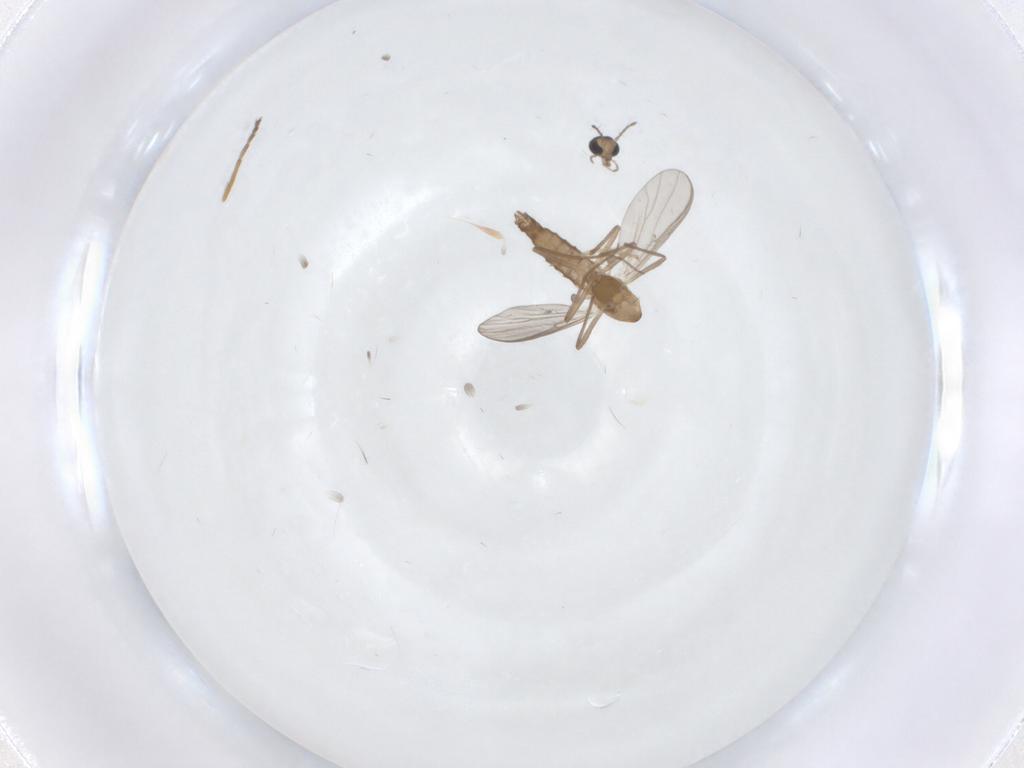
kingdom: Animalia
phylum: Arthropoda
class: Insecta
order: Diptera
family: Chironomidae
